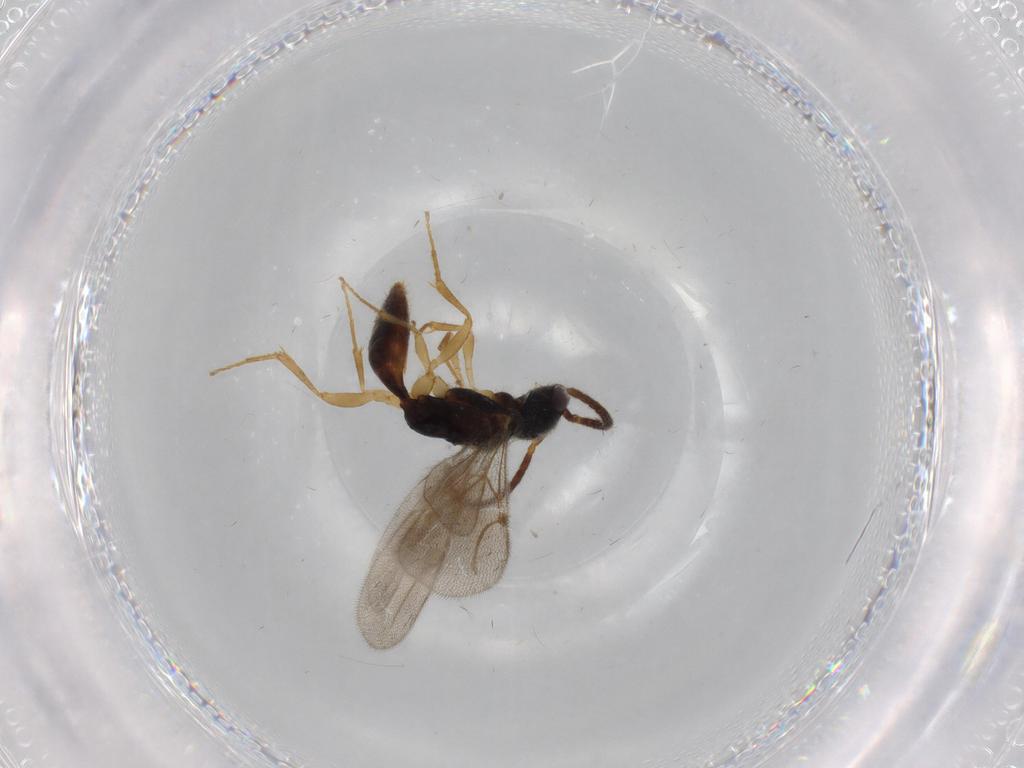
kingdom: Animalia
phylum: Arthropoda
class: Insecta
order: Hymenoptera
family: Bethylidae
